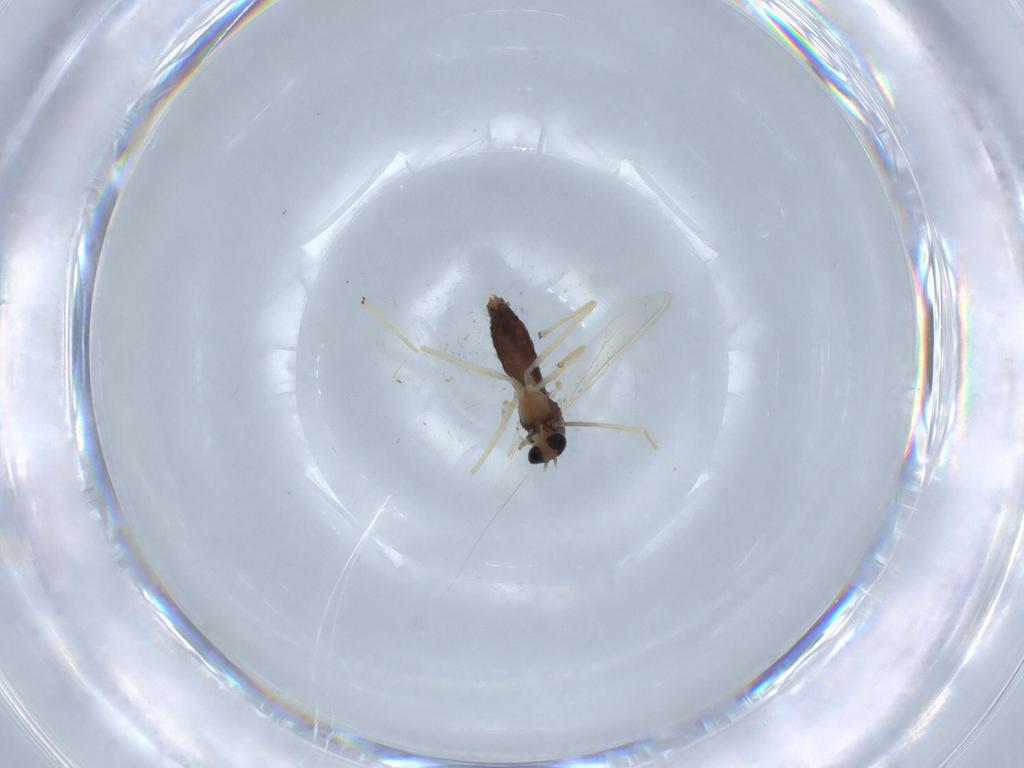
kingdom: Animalia
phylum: Arthropoda
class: Insecta
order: Diptera
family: Chironomidae
